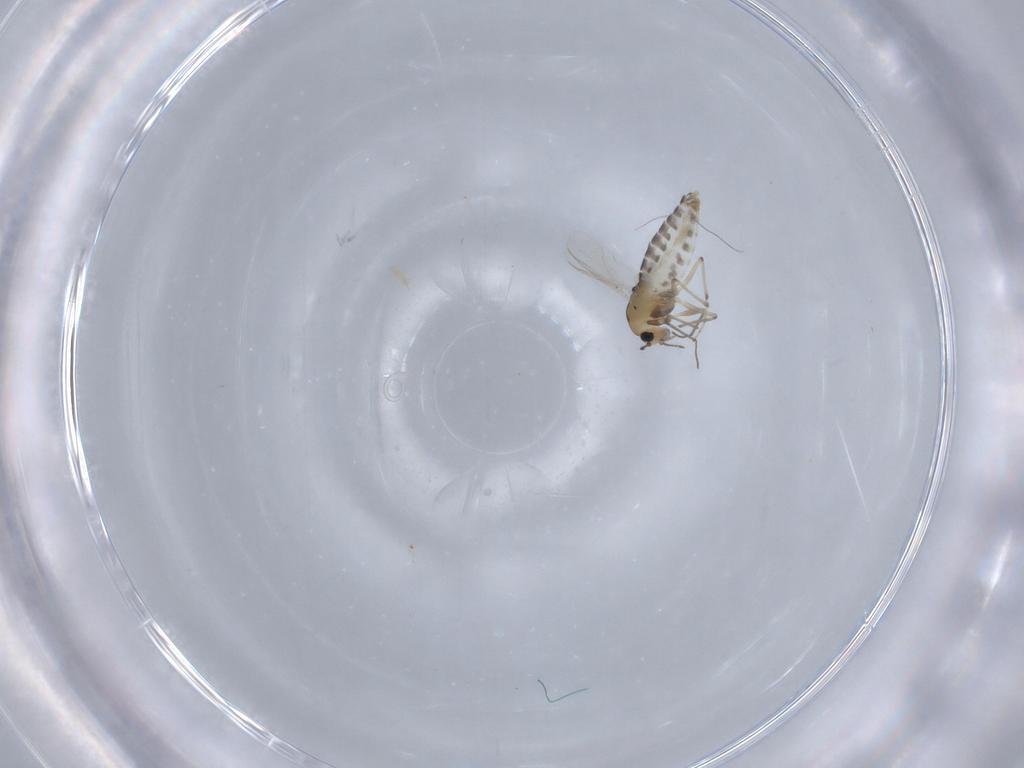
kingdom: Animalia
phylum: Arthropoda
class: Insecta
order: Diptera
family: Chironomidae
